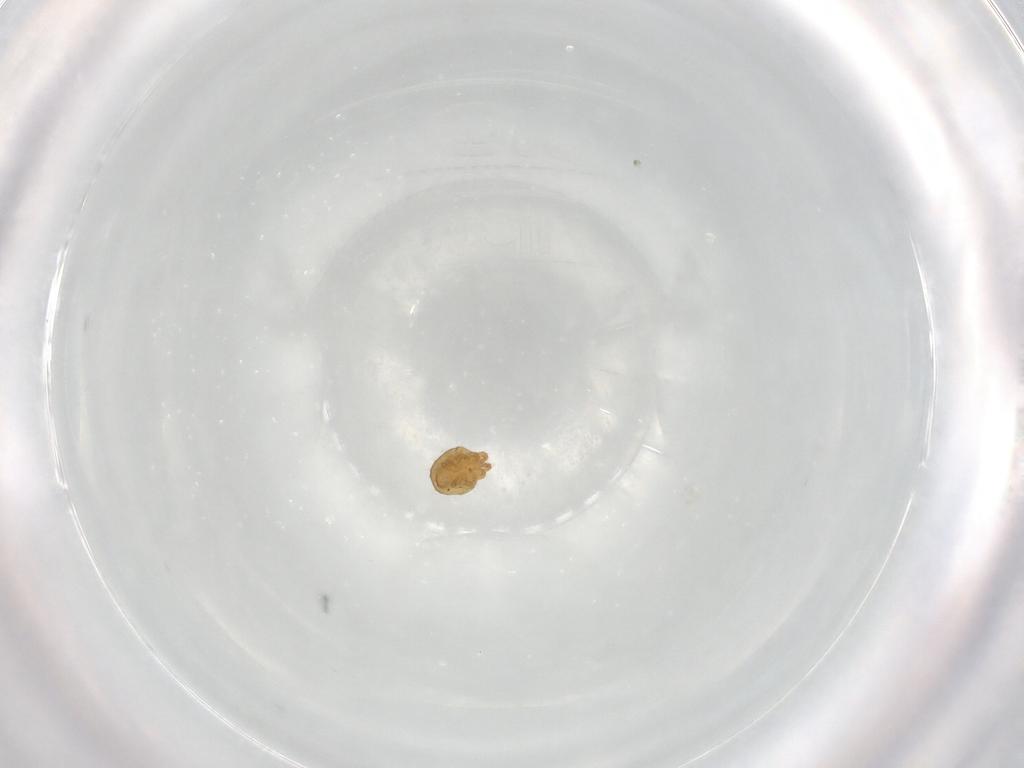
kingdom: Animalia
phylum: Arthropoda
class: Arachnida
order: Trombidiformes
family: Stigmaeidae
